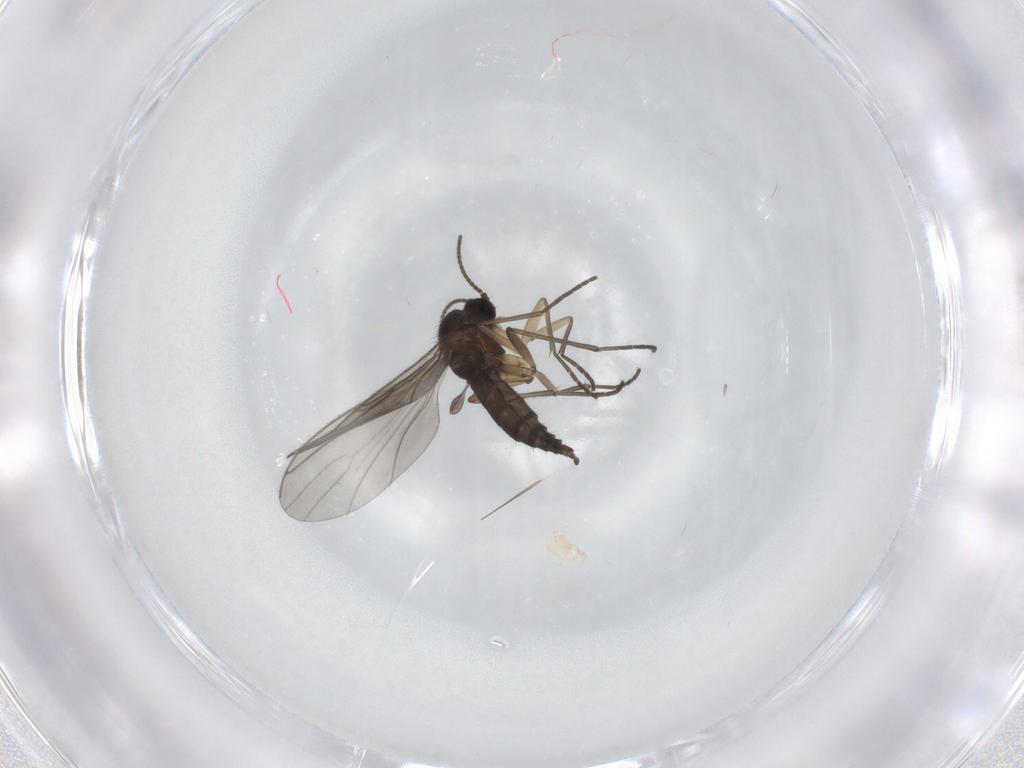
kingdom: Animalia
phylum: Arthropoda
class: Insecta
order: Diptera
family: Sciaridae
